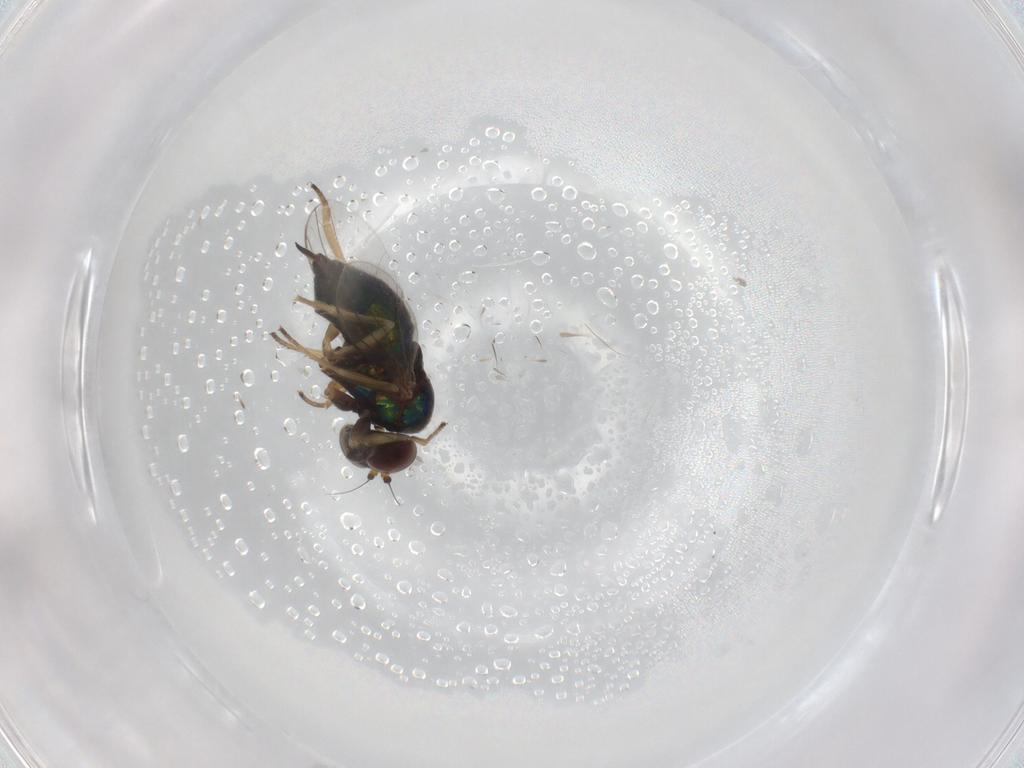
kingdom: Animalia
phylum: Arthropoda
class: Insecta
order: Diptera
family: Dolichopodidae
